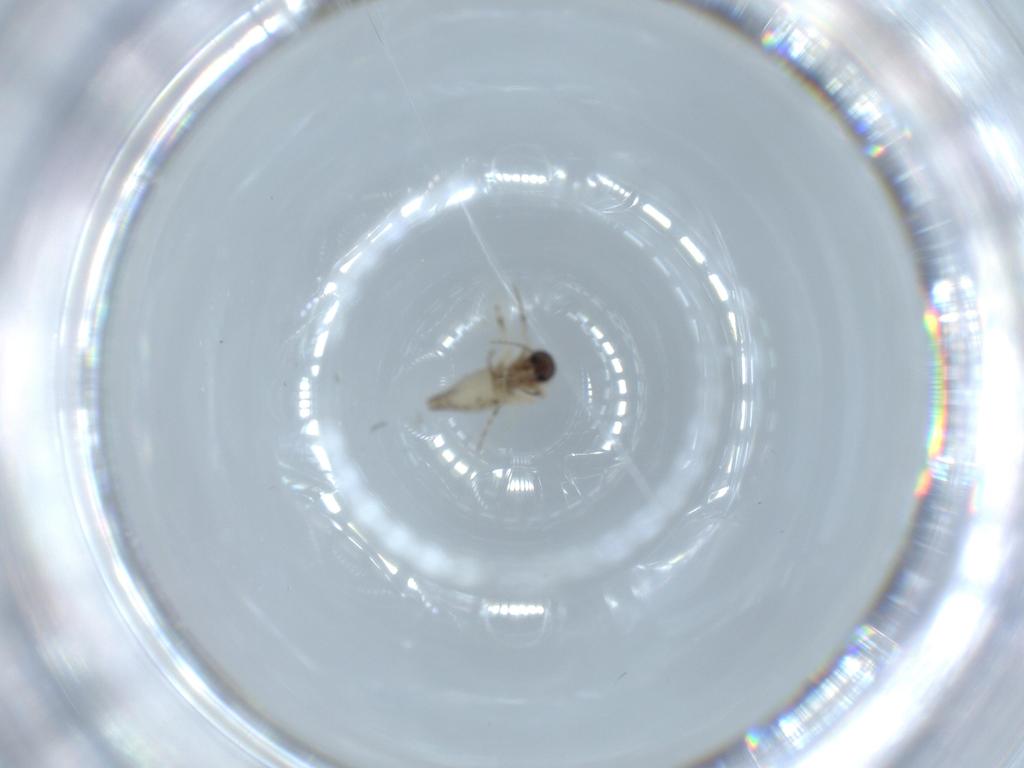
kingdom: Animalia
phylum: Arthropoda
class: Insecta
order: Diptera
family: Ceratopogonidae
